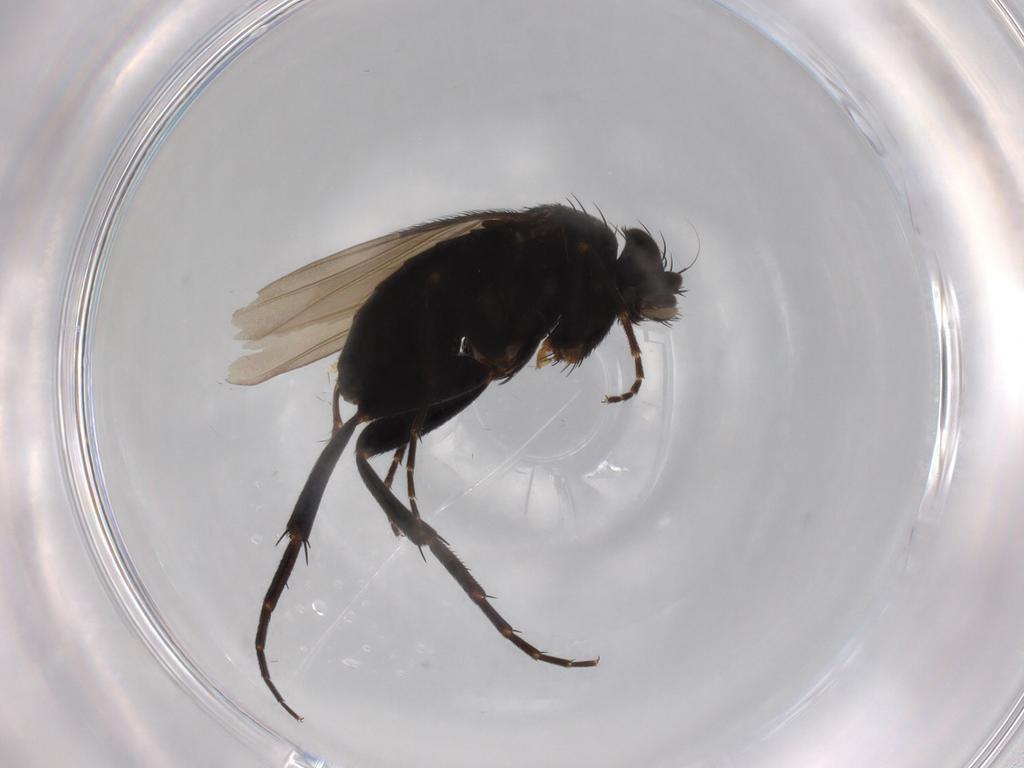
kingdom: Animalia
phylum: Arthropoda
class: Insecta
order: Diptera
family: Phoridae
